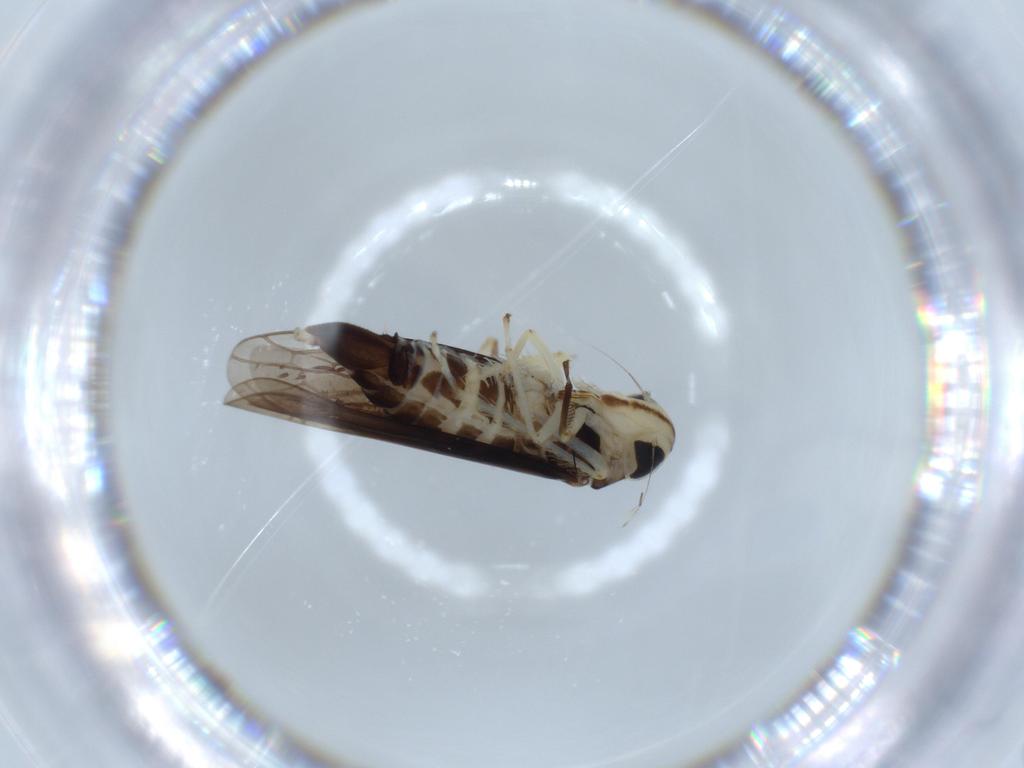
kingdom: Animalia
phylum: Arthropoda
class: Insecta
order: Hemiptera
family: Cicadellidae
